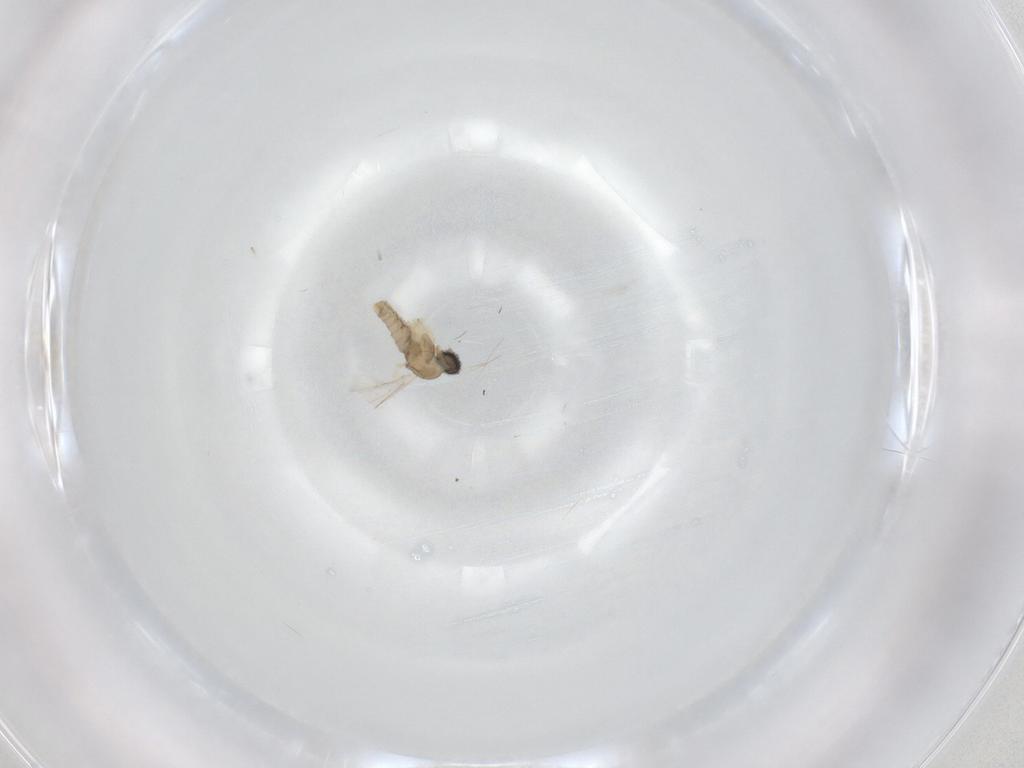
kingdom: Animalia
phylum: Arthropoda
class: Insecta
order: Diptera
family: Cecidomyiidae
